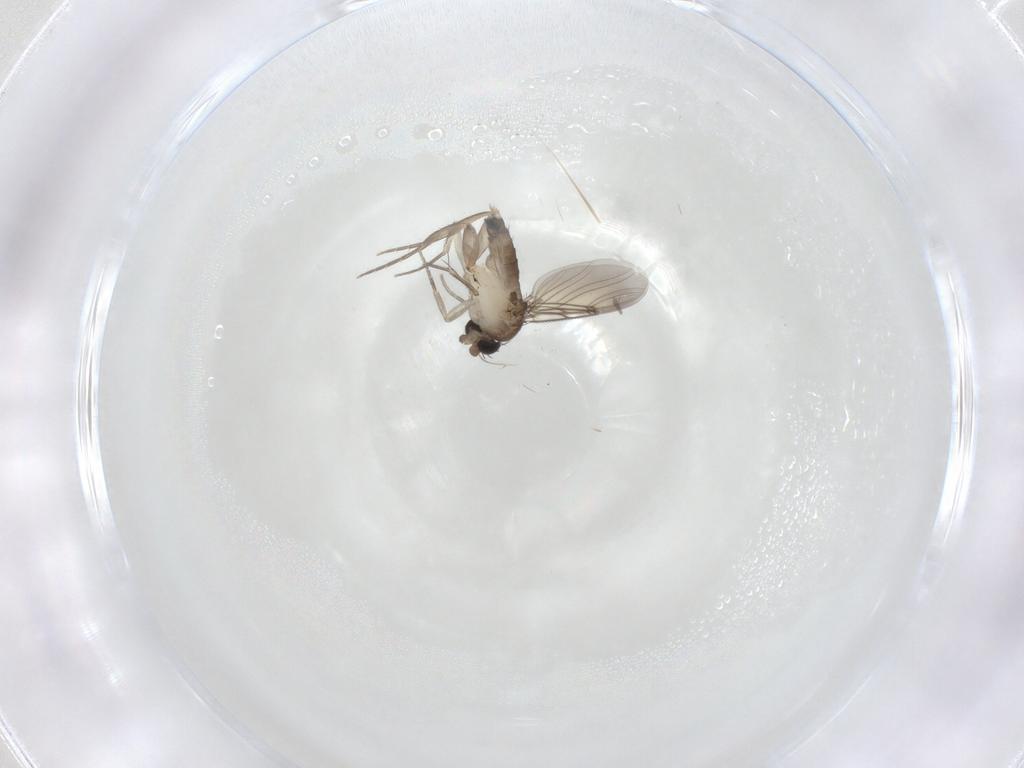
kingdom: Animalia
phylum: Arthropoda
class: Insecta
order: Diptera
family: Phoridae
